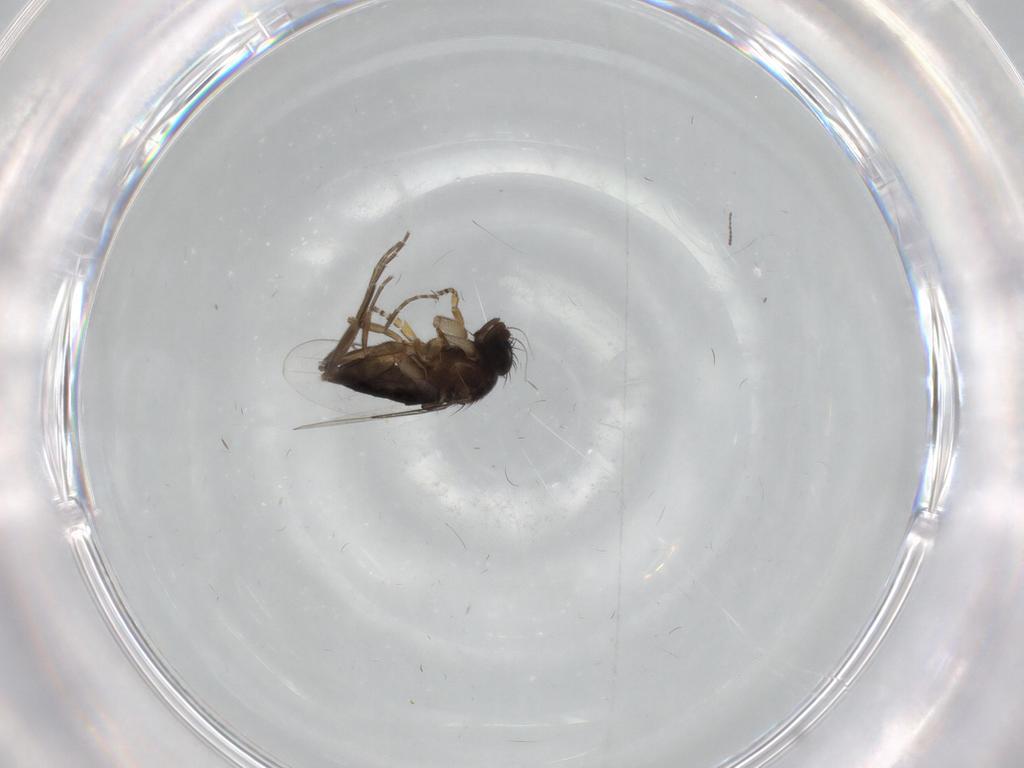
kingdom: Animalia
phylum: Arthropoda
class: Insecta
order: Diptera
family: Phoridae
